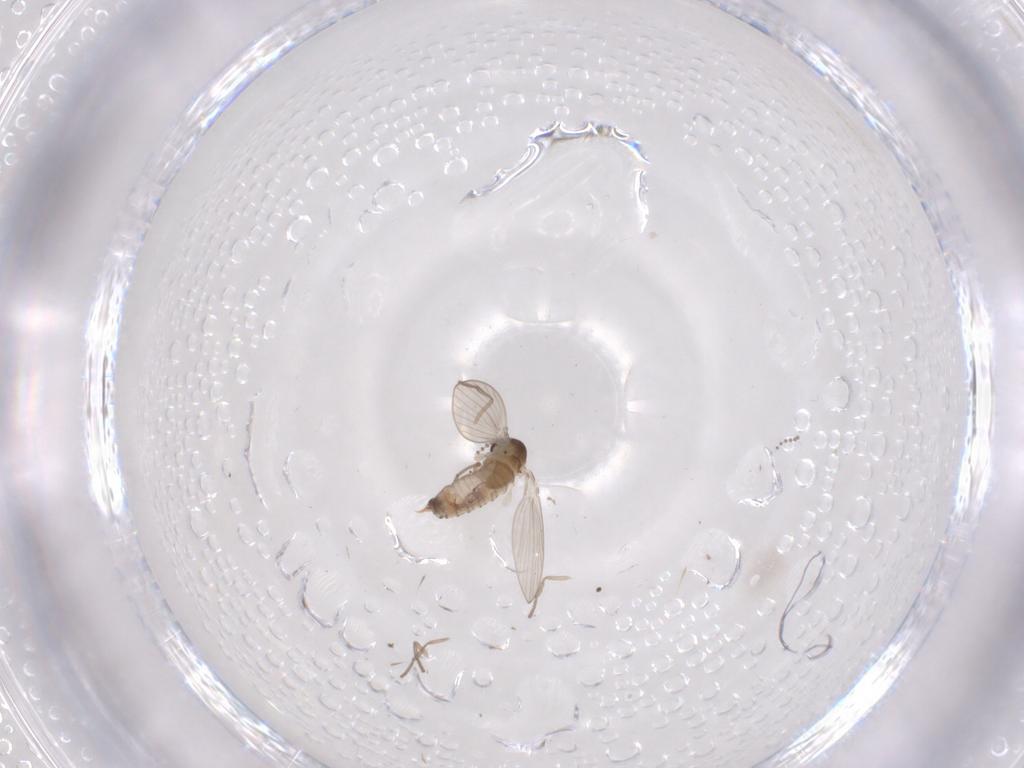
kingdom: Animalia
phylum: Arthropoda
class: Insecta
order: Diptera
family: Psychodidae
